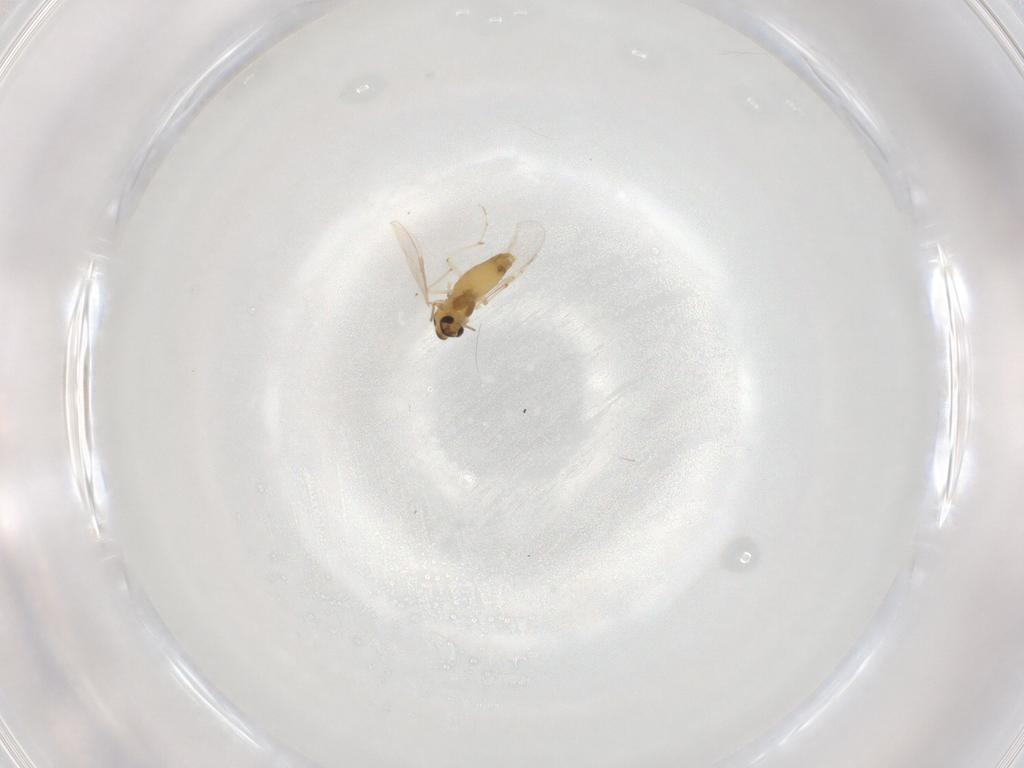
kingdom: Animalia
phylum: Arthropoda
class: Insecta
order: Diptera
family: Chironomidae
